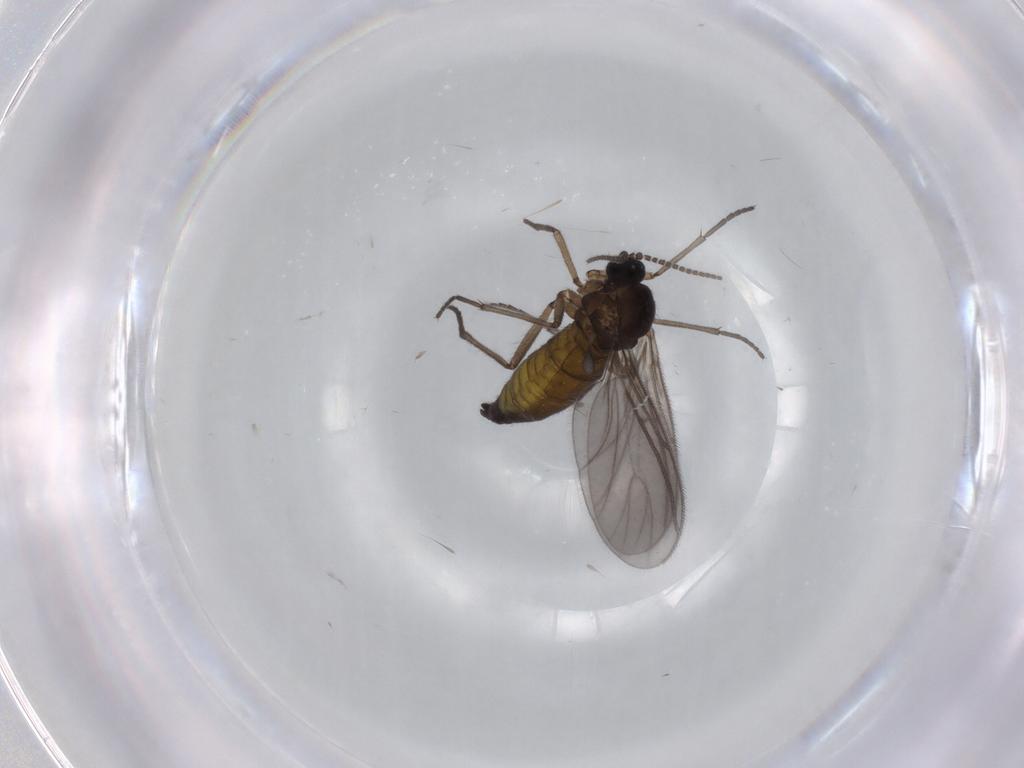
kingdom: Animalia
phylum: Arthropoda
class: Insecta
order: Diptera
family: Sciaridae
